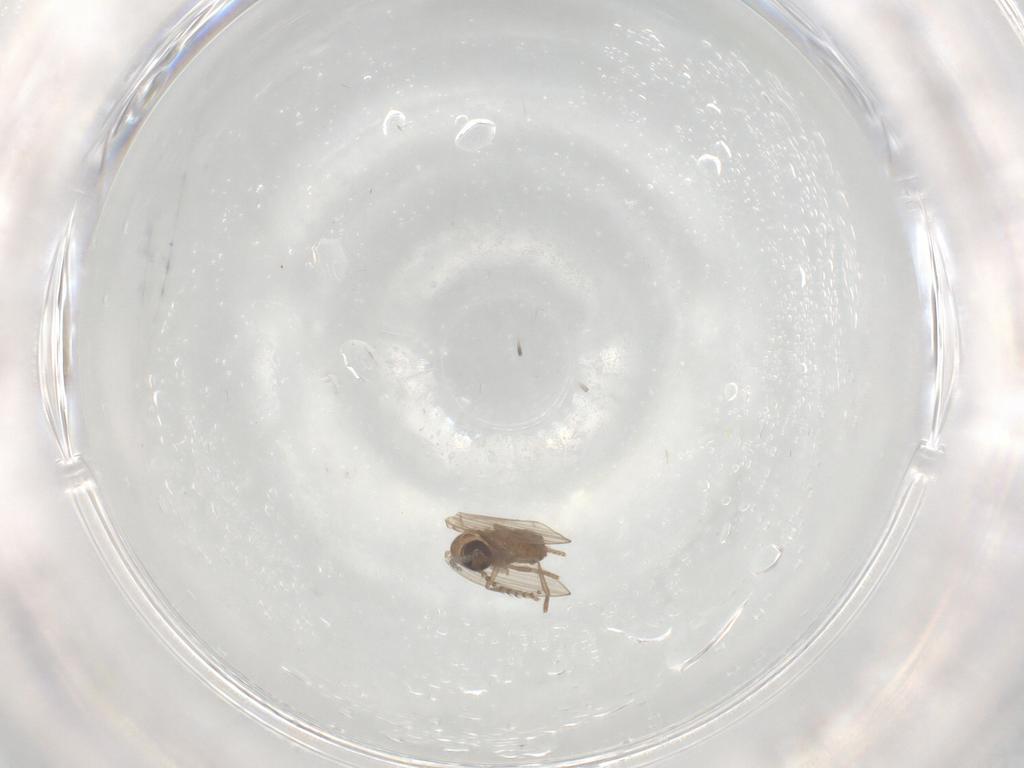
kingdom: Animalia
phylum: Arthropoda
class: Insecta
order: Diptera
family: Psychodidae
